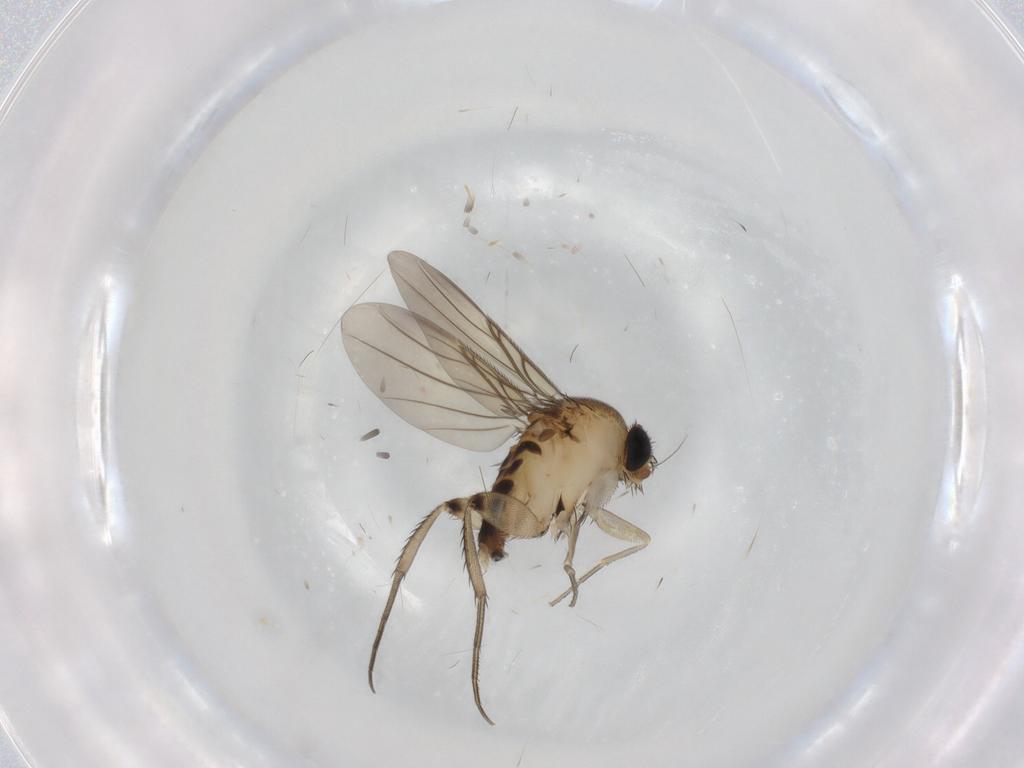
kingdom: Animalia
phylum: Arthropoda
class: Insecta
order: Diptera
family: Phoridae
